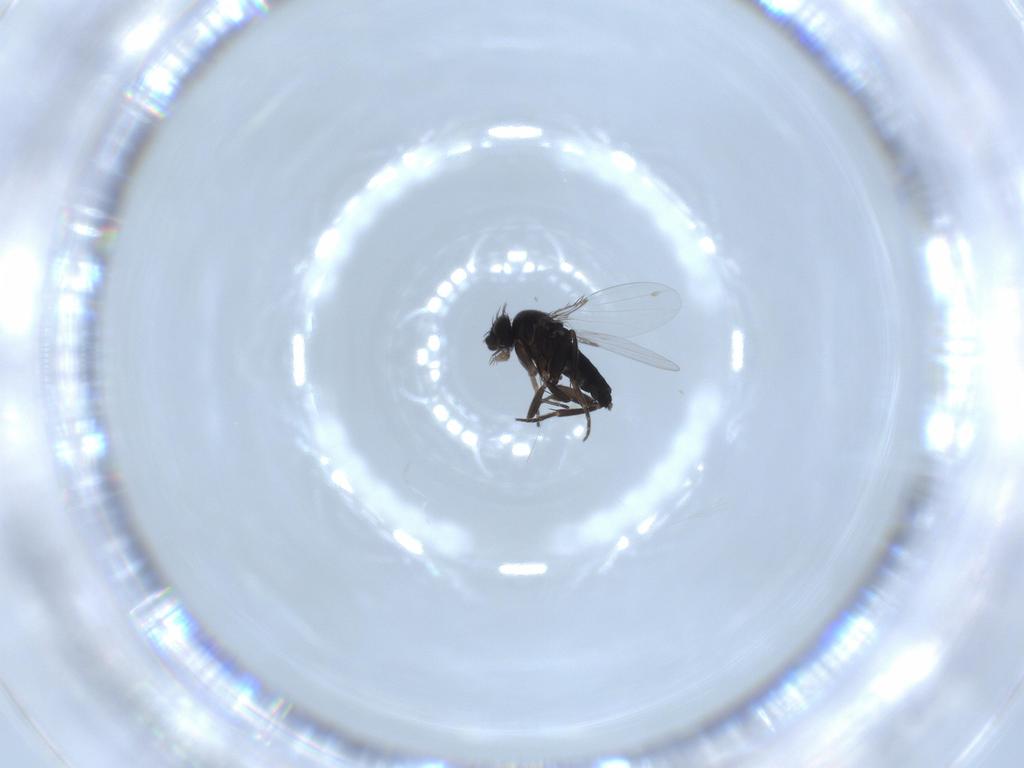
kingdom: Animalia
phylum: Arthropoda
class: Insecta
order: Diptera
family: Phoridae
